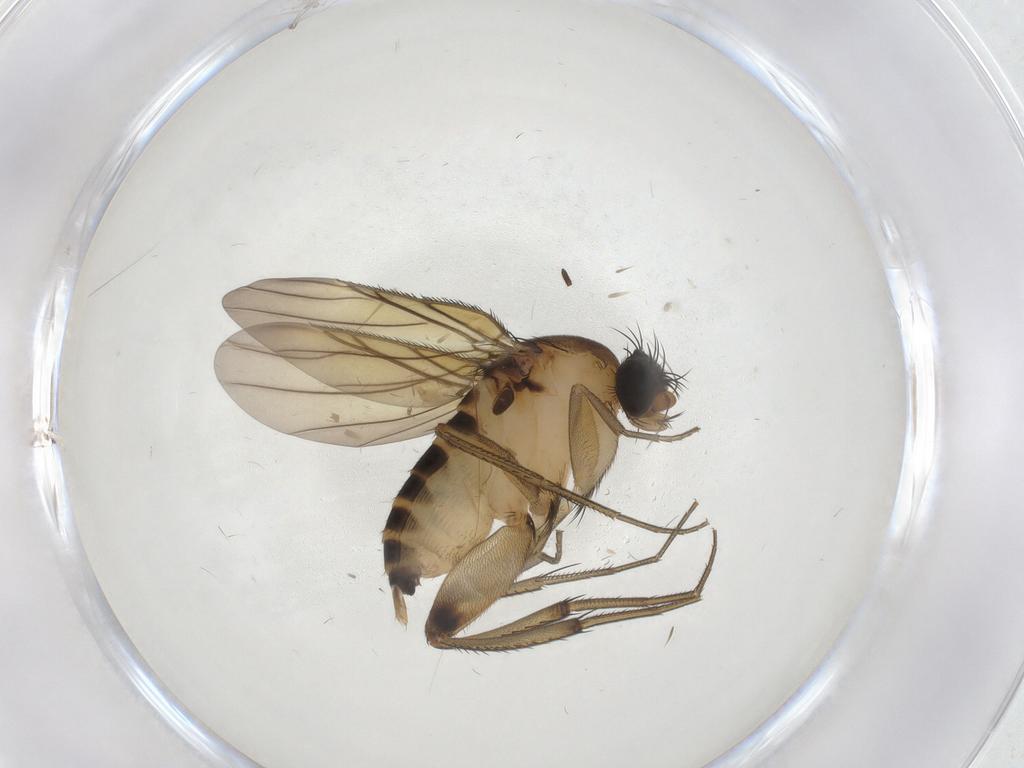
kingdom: Animalia
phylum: Arthropoda
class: Insecta
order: Diptera
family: Phoridae
